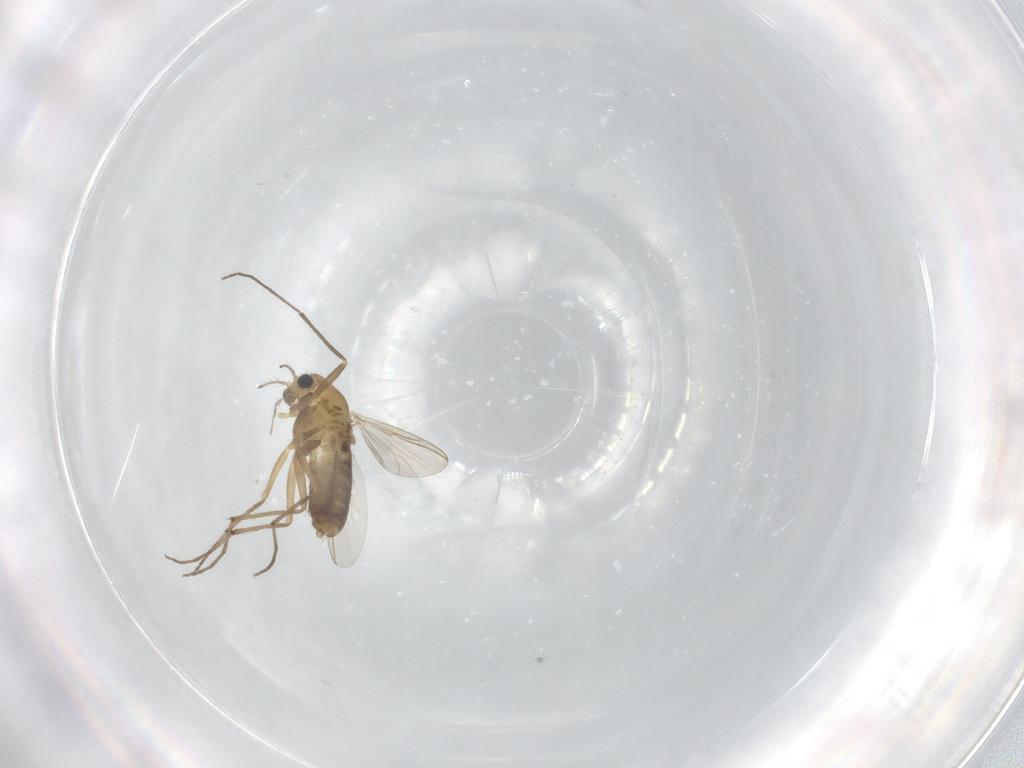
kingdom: Animalia
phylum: Arthropoda
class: Insecta
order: Diptera
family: Chironomidae
